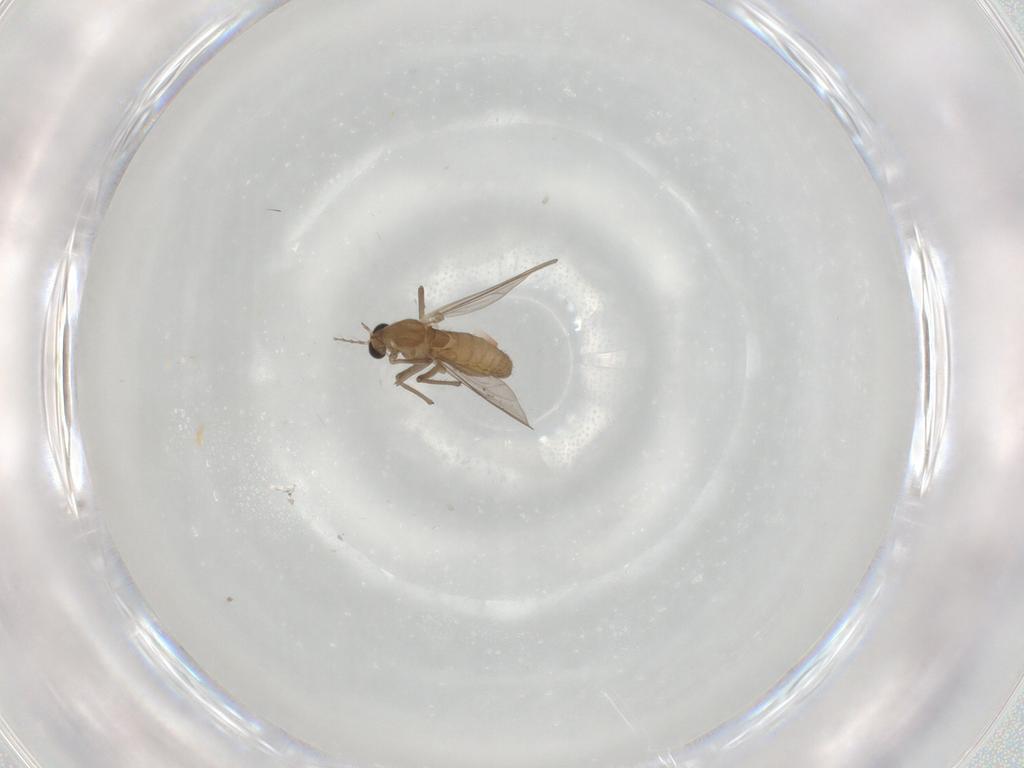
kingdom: Animalia
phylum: Arthropoda
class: Insecta
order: Diptera
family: Chironomidae
